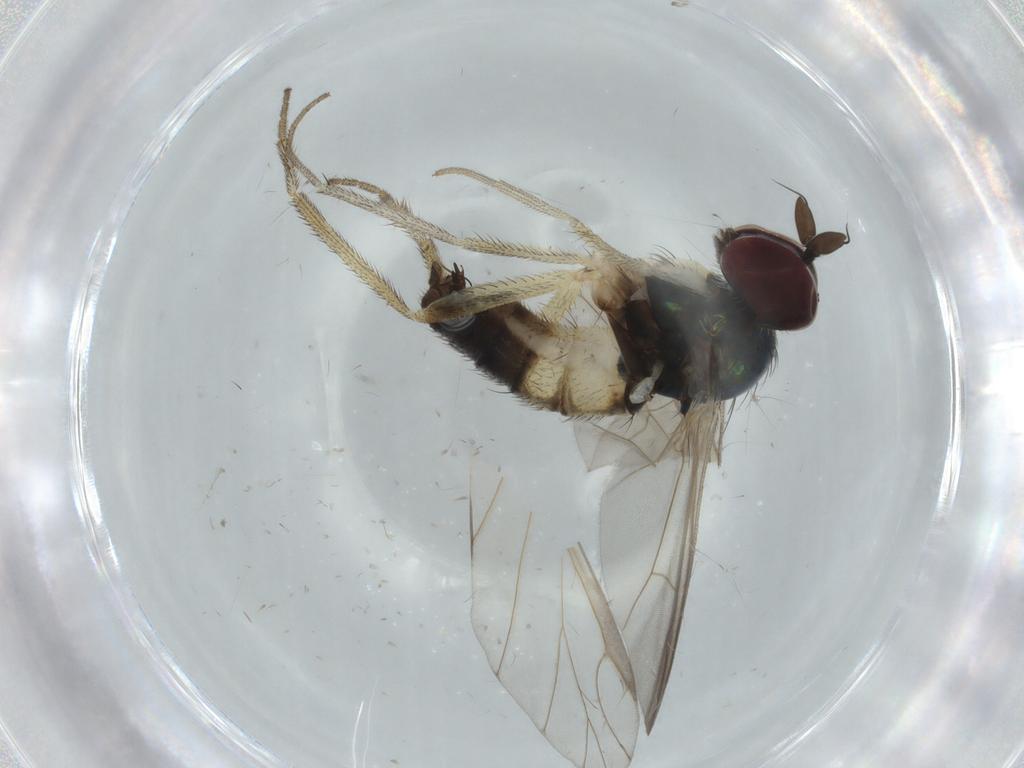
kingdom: Animalia
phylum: Arthropoda
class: Insecta
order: Diptera
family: Dolichopodidae
